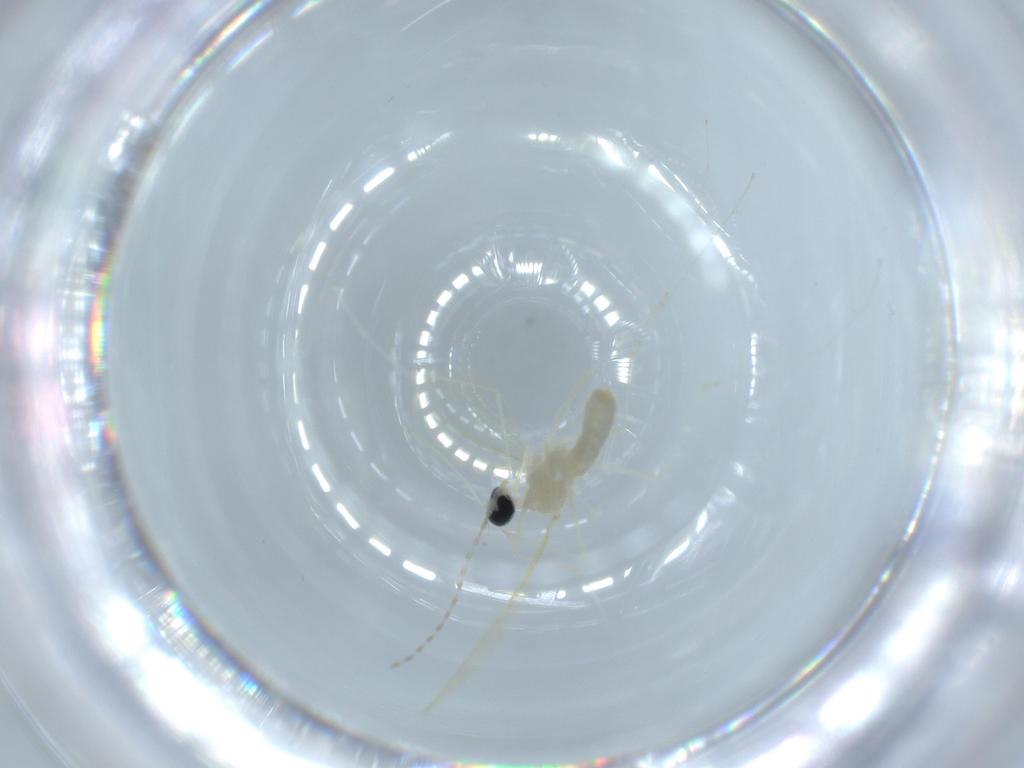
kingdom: Animalia
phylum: Arthropoda
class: Insecta
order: Diptera
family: Cecidomyiidae
